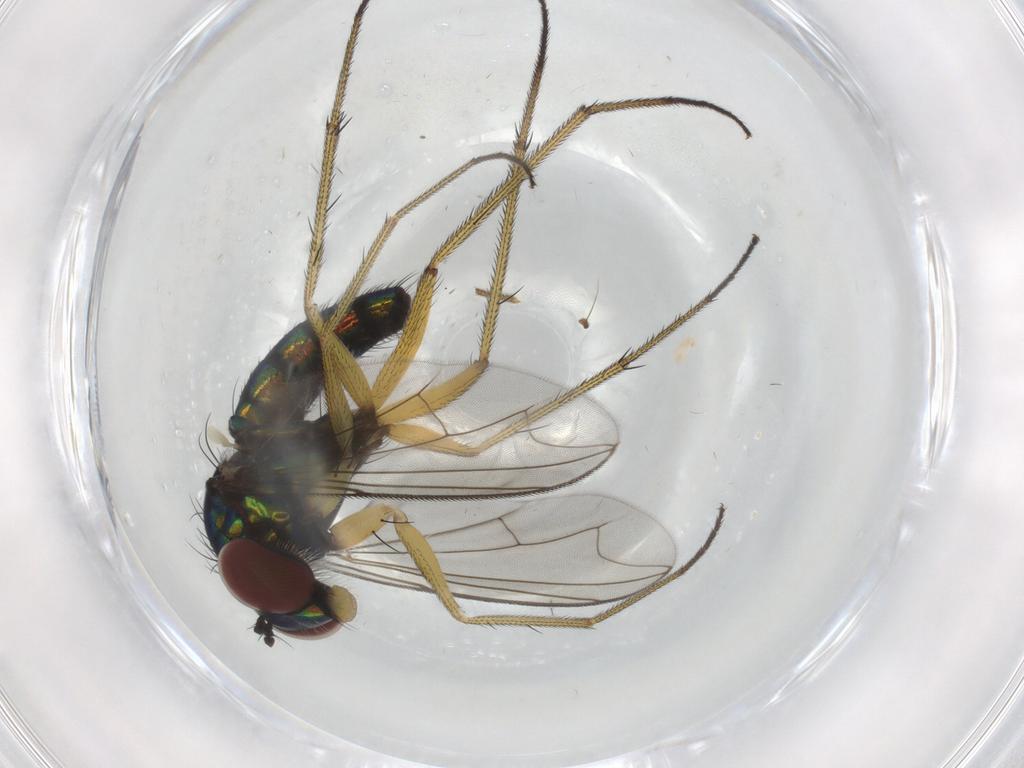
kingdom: Animalia
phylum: Arthropoda
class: Insecta
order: Diptera
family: Dolichopodidae
